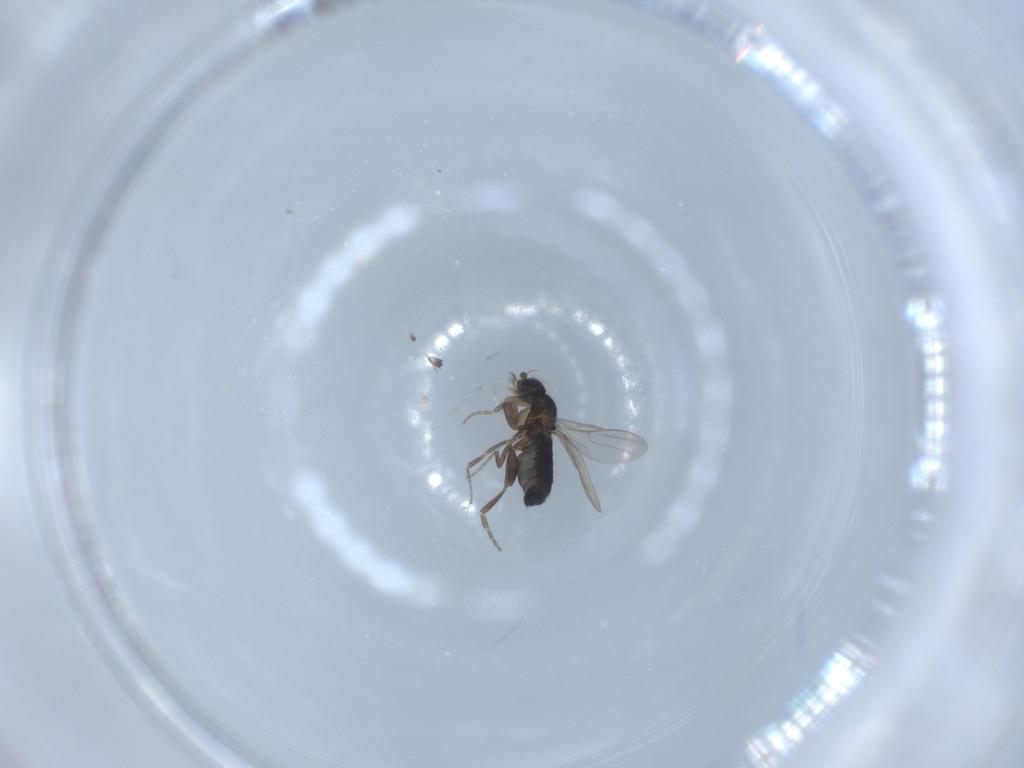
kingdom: Animalia
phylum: Arthropoda
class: Insecta
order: Diptera
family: Phoridae
